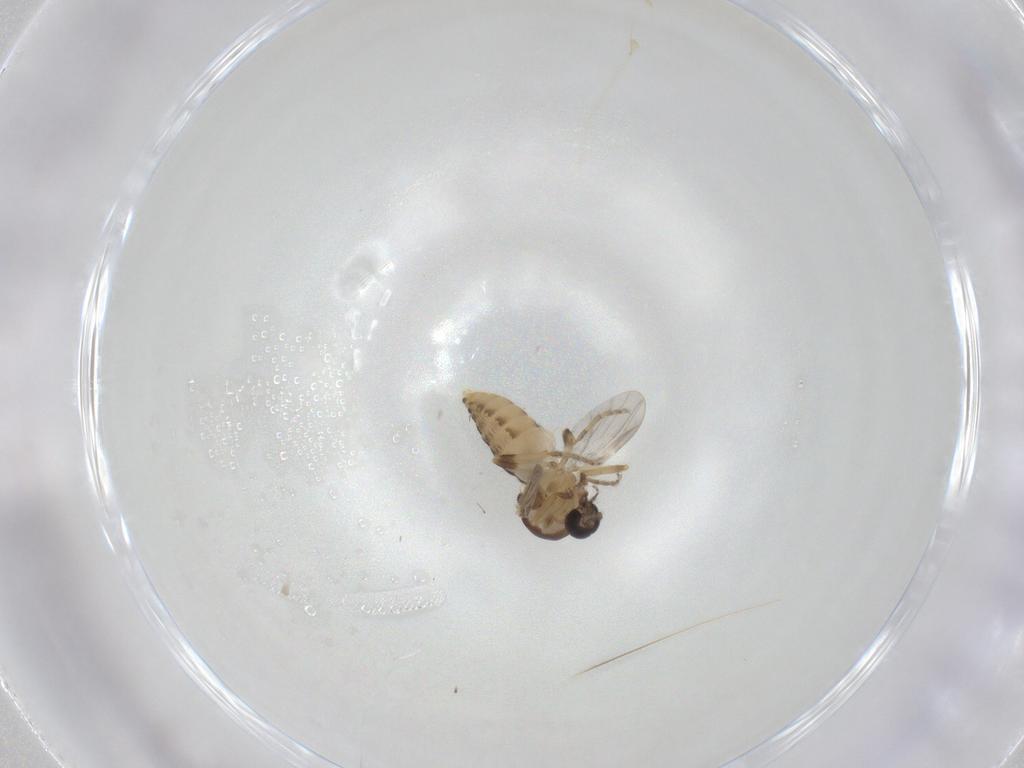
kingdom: Animalia
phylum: Arthropoda
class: Insecta
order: Diptera
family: Ceratopogonidae
